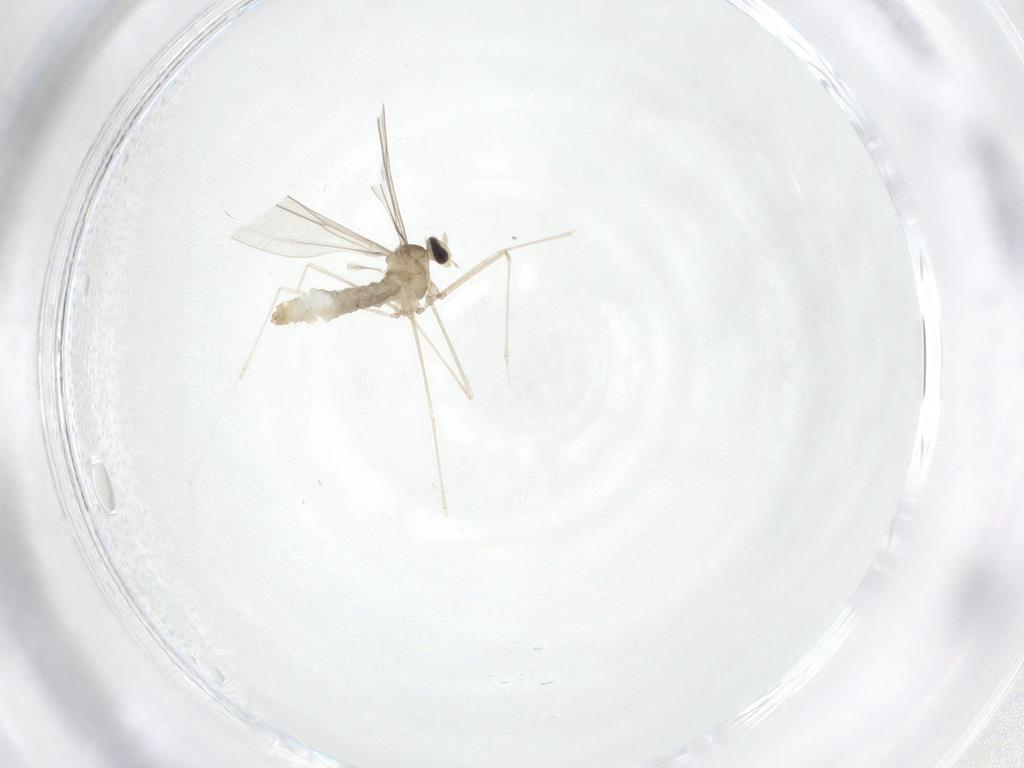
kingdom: Animalia
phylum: Arthropoda
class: Insecta
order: Diptera
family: Cecidomyiidae
